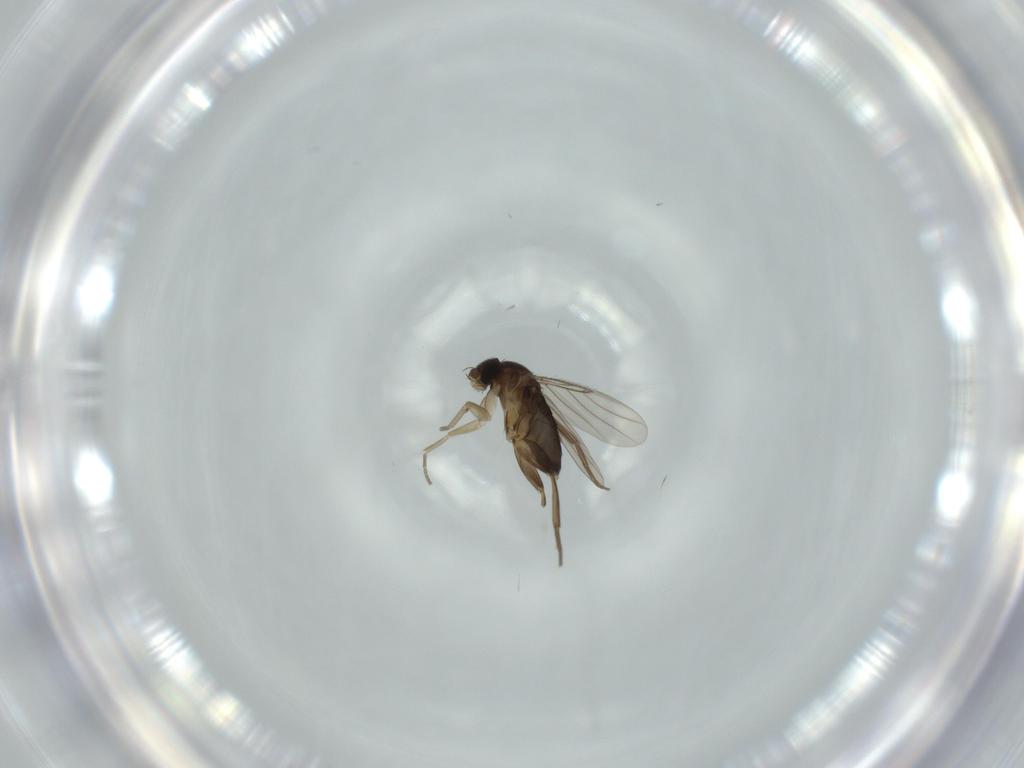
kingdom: Animalia
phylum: Arthropoda
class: Insecta
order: Diptera
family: Phoridae
